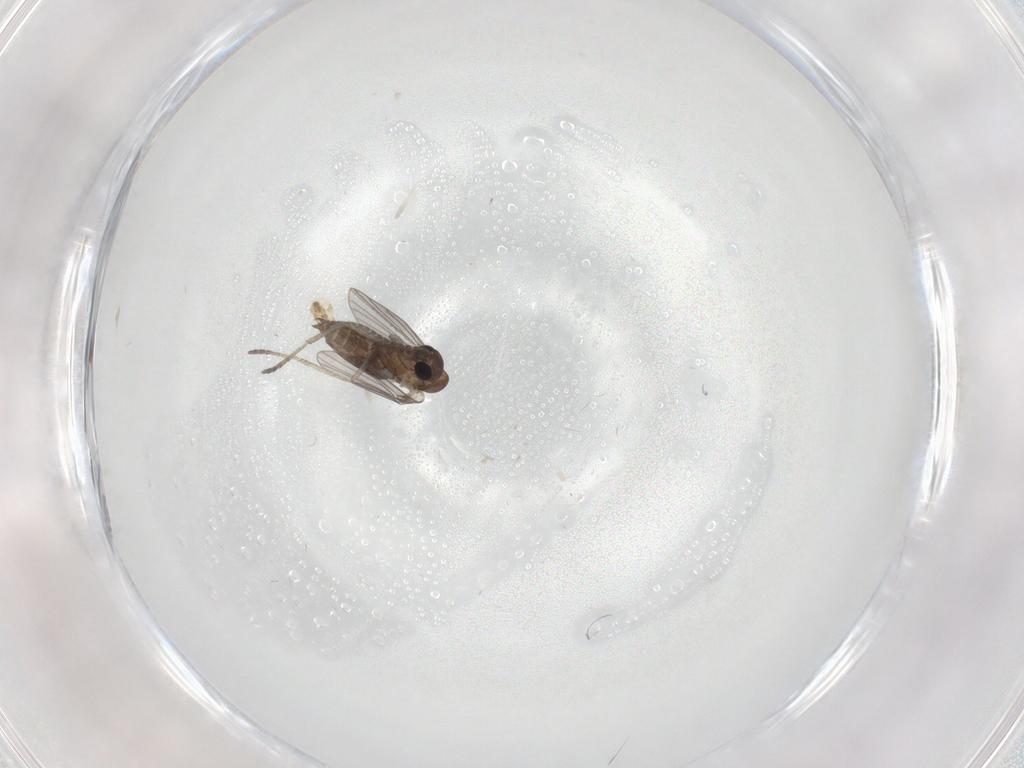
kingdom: Animalia
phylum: Arthropoda
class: Insecta
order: Diptera
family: Cecidomyiidae
